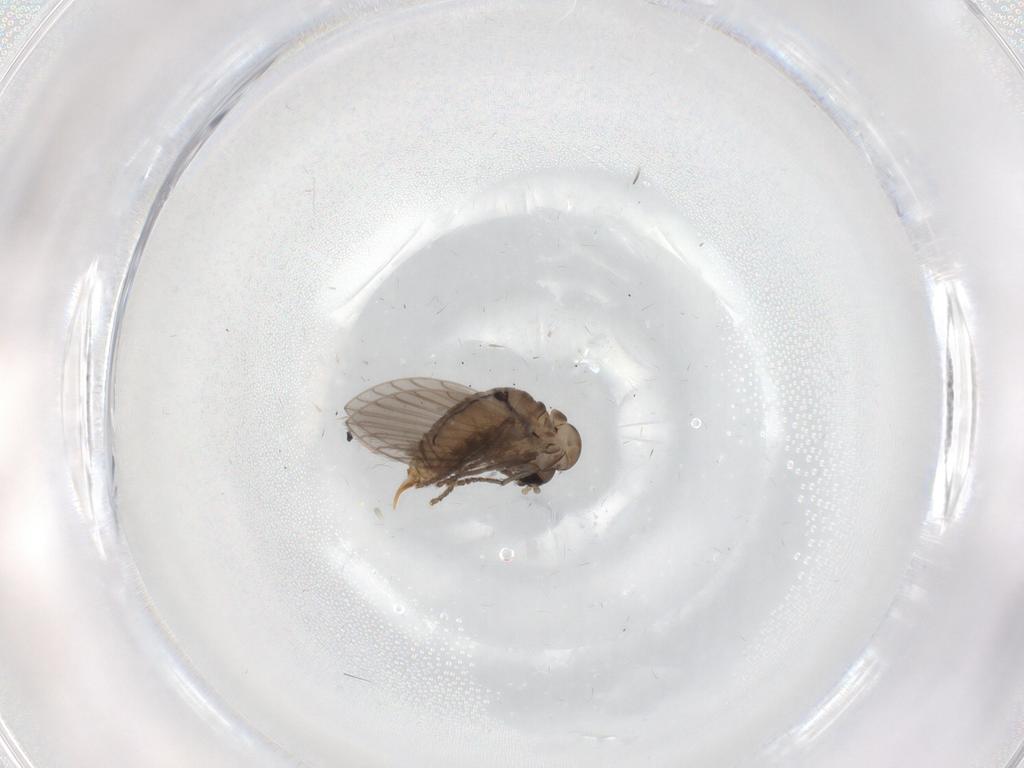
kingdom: Animalia
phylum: Arthropoda
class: Insecta
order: Diptera
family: Psychodidae
